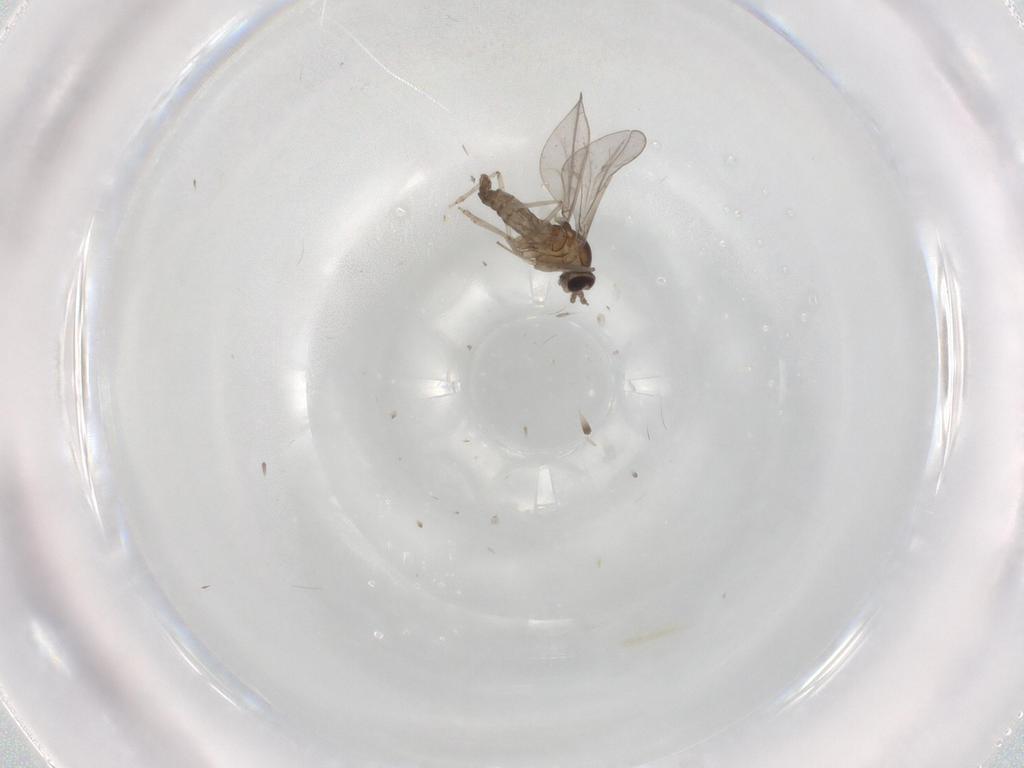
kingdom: Animalia
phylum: Arthropoda
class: Insecta
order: Diptera
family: Cecidomyiidae
